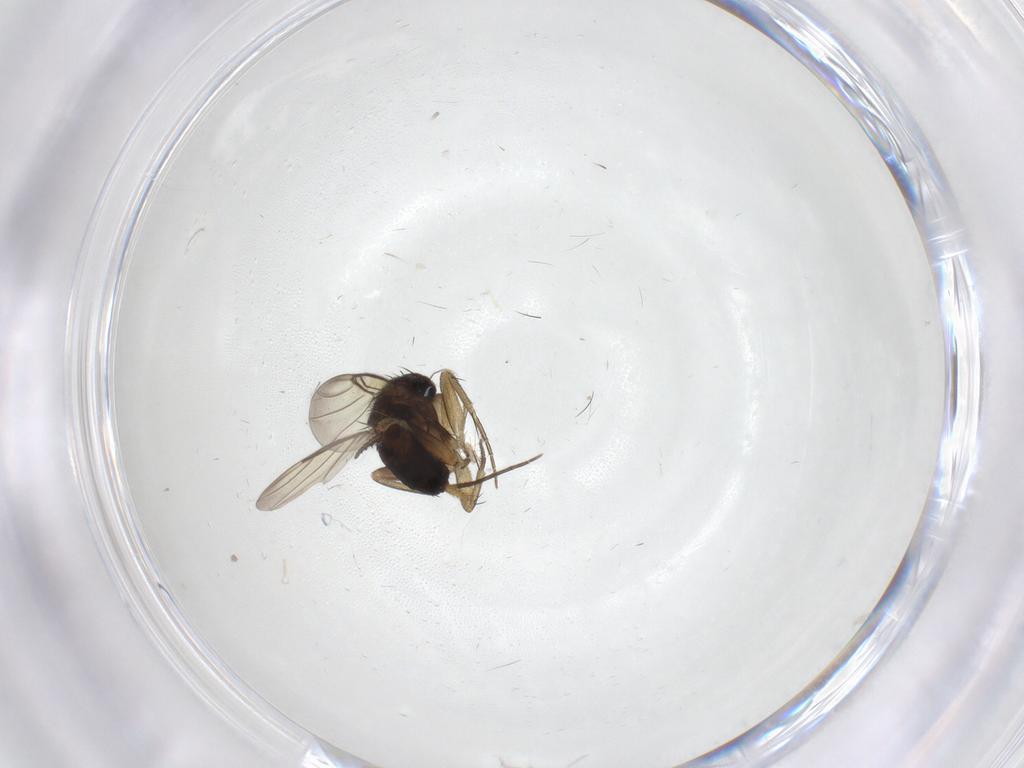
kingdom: Animalia
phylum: Arthropoda
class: Insecta
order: Diptera
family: Phoridae
